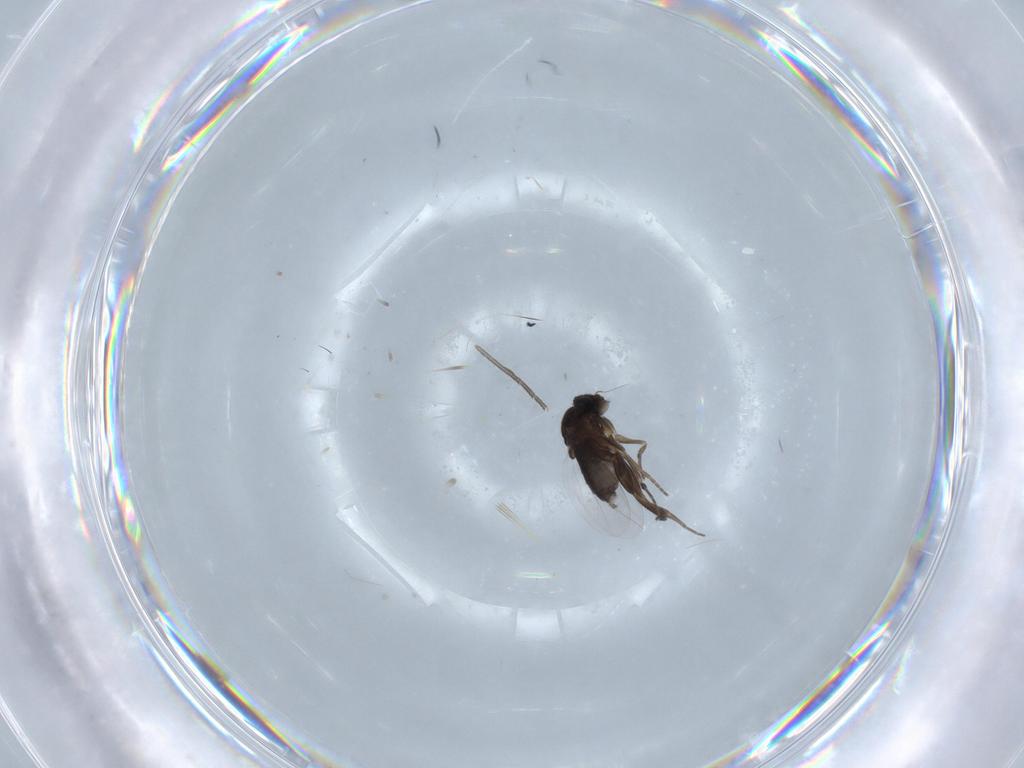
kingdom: Animalia
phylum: Arthropoda
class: Insecta
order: Diptera
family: Phoridae
